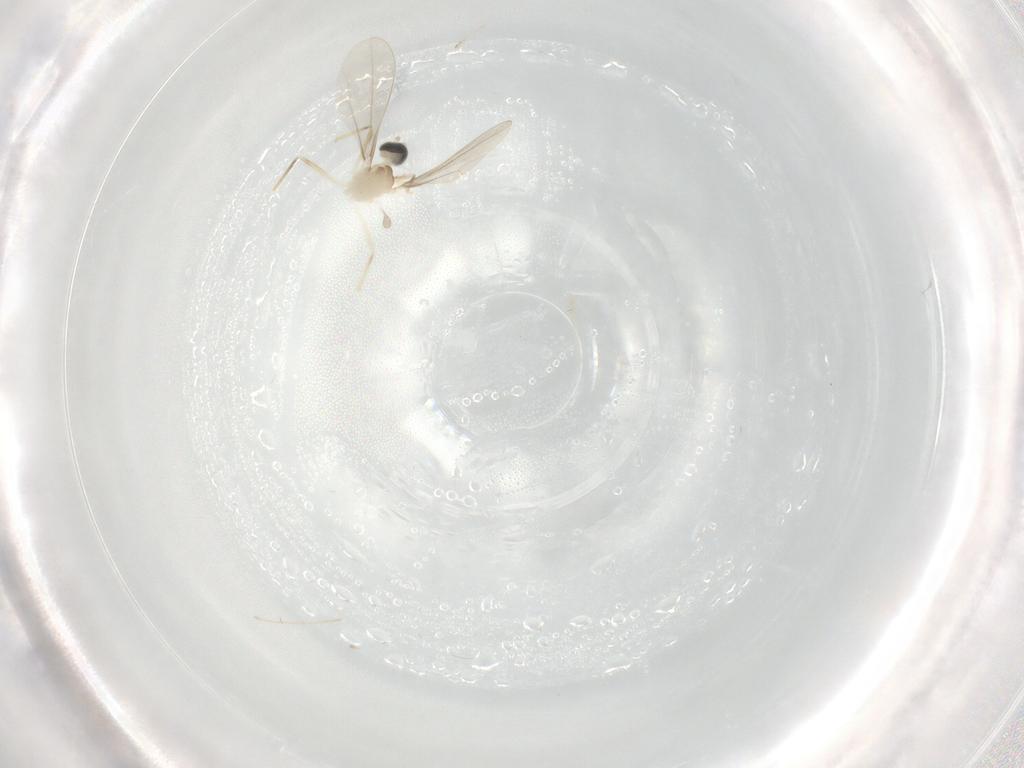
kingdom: Animalia
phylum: Arthropoda
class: Insecta
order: Diptera
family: Cecidomyiidae
